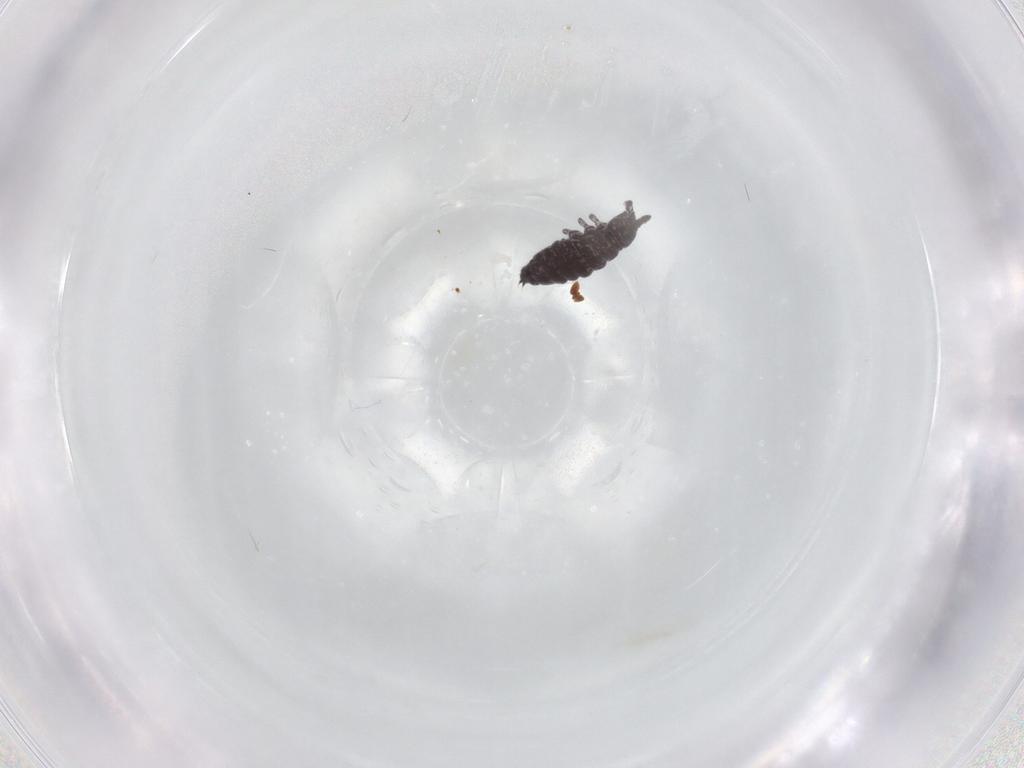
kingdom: Animalia
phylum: Arthropoda
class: Collembola
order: Poduromorpha
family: Hypogastruridae
